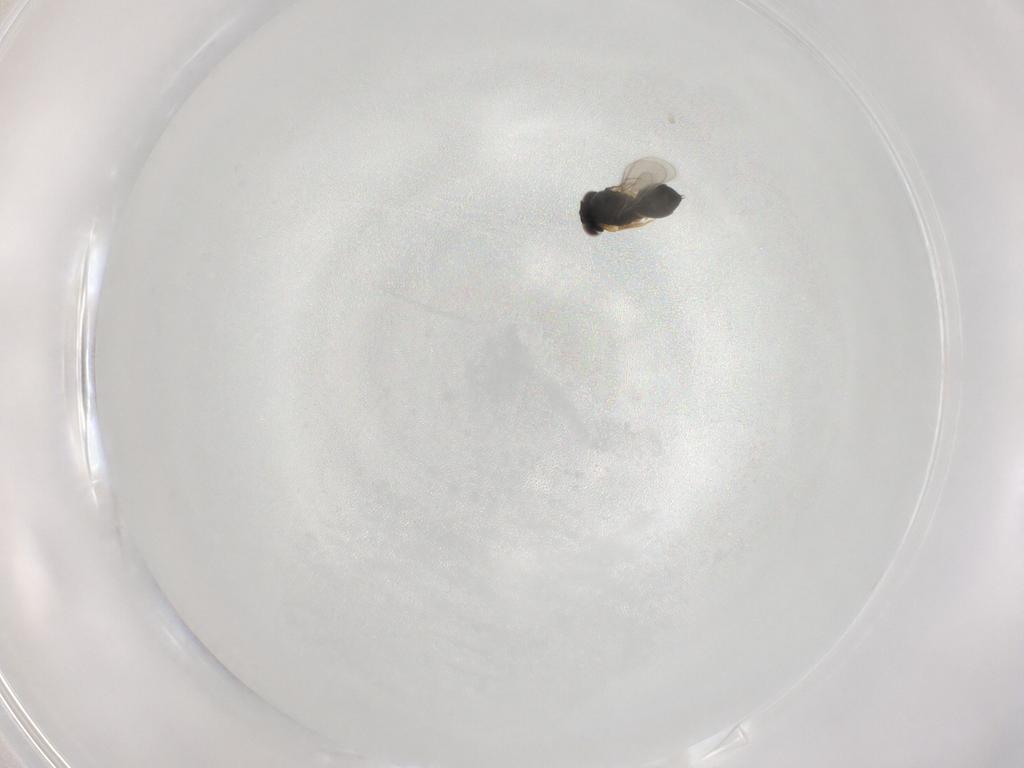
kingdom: Animalia
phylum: Arthropoda
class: Insecta
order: Hymenoptera
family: Scelionidae
